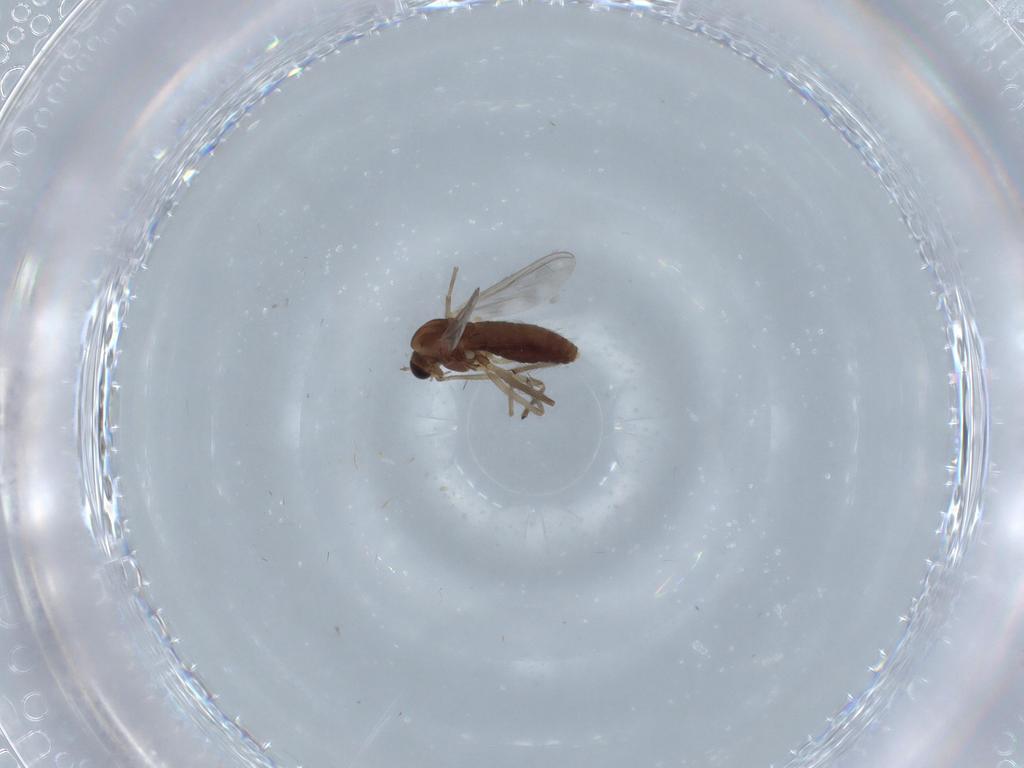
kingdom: Animalia
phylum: Arthropoda
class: Insecta
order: Diptera
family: Chironomidae
